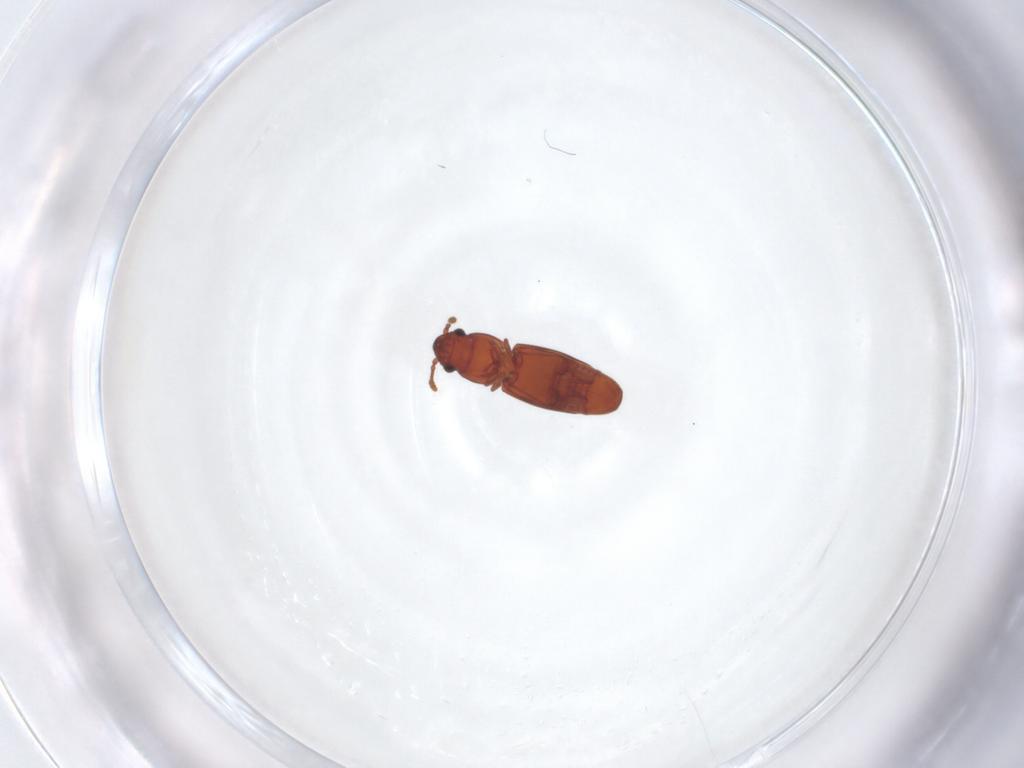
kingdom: Animalia
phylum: Arthropoda
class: Insecta
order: Coleoptera
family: Smicripidae
